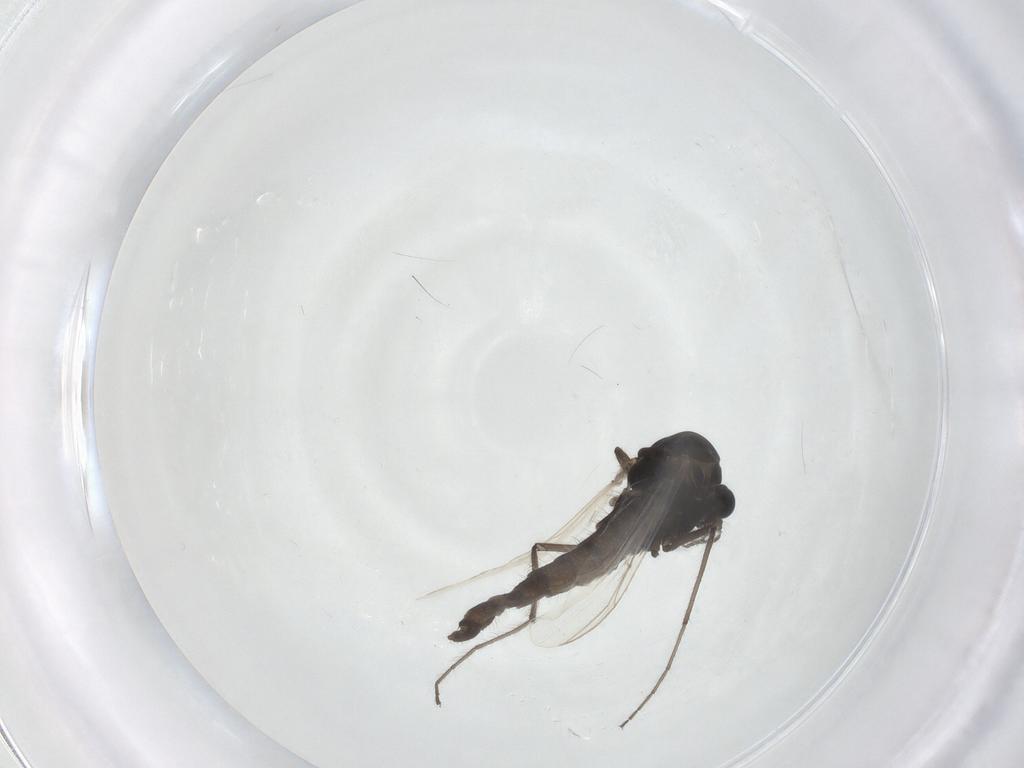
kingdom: Animalia
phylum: Arthropoda
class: Insecta
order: Diptera
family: Chironomidae
